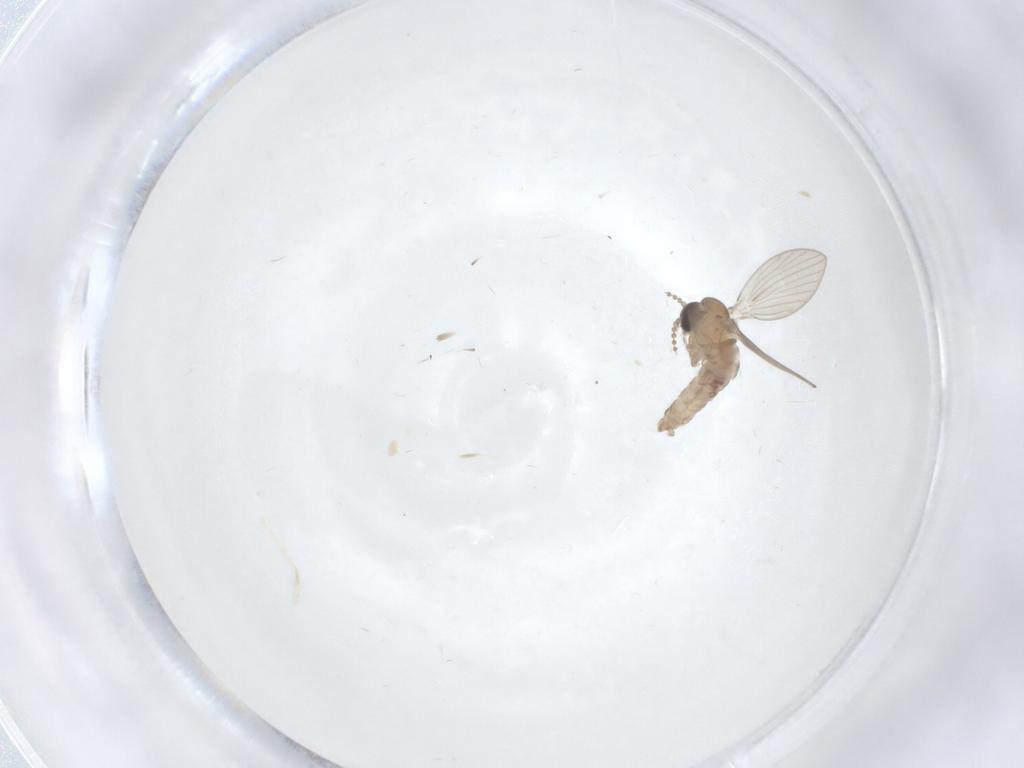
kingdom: Animalia
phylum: Arthropoda
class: Insecta
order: Diptera
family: Psychodidae
